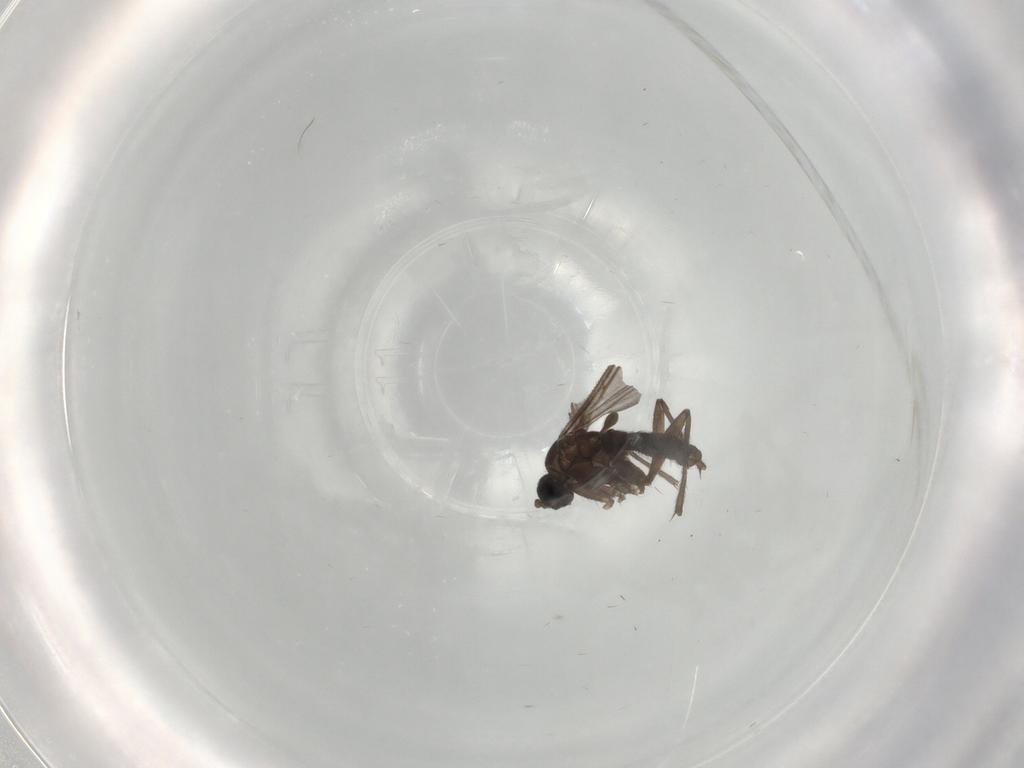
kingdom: Animalia
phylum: Arthropoda
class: Insecta
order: Diptera
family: Sciaridae
